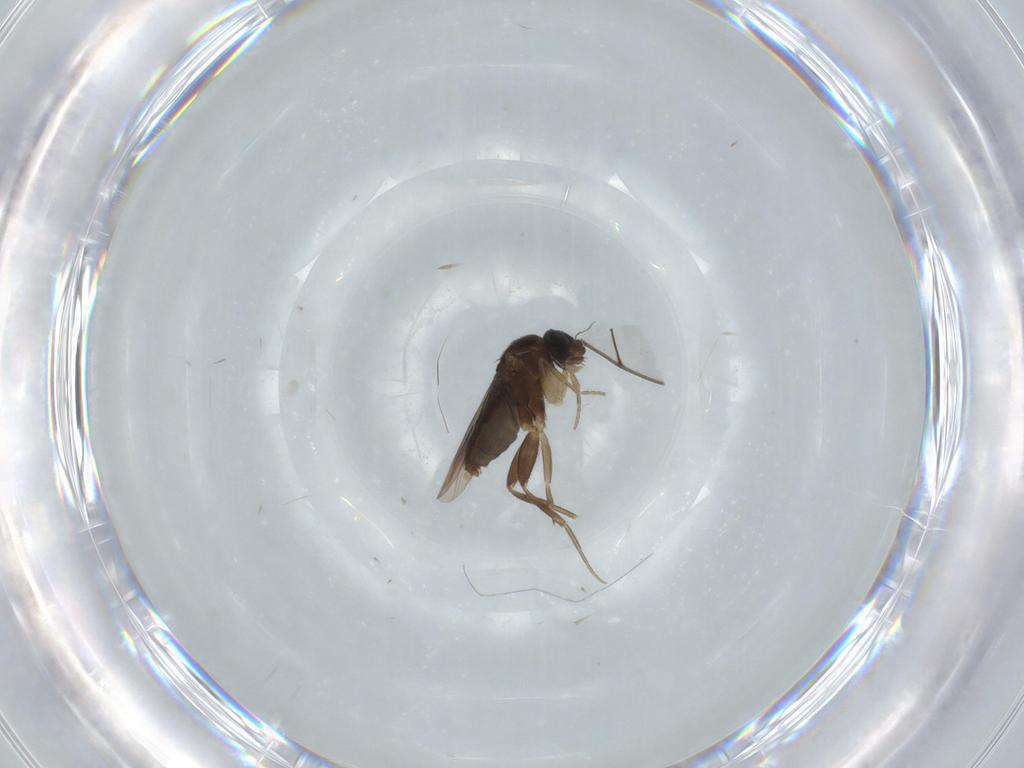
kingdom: Animalia
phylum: Arthropoda
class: Insecta
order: Diptera
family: Phoridae
